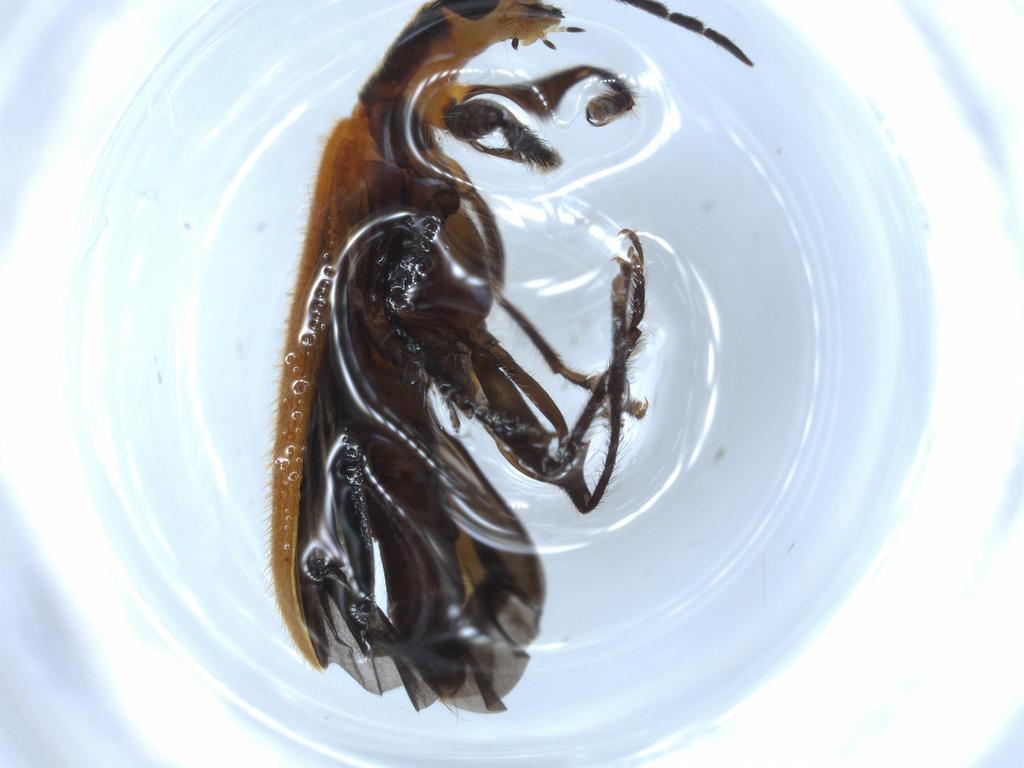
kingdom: Animalia
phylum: Arthropoda
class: Insecta
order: Coleoptera
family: Cleridae
